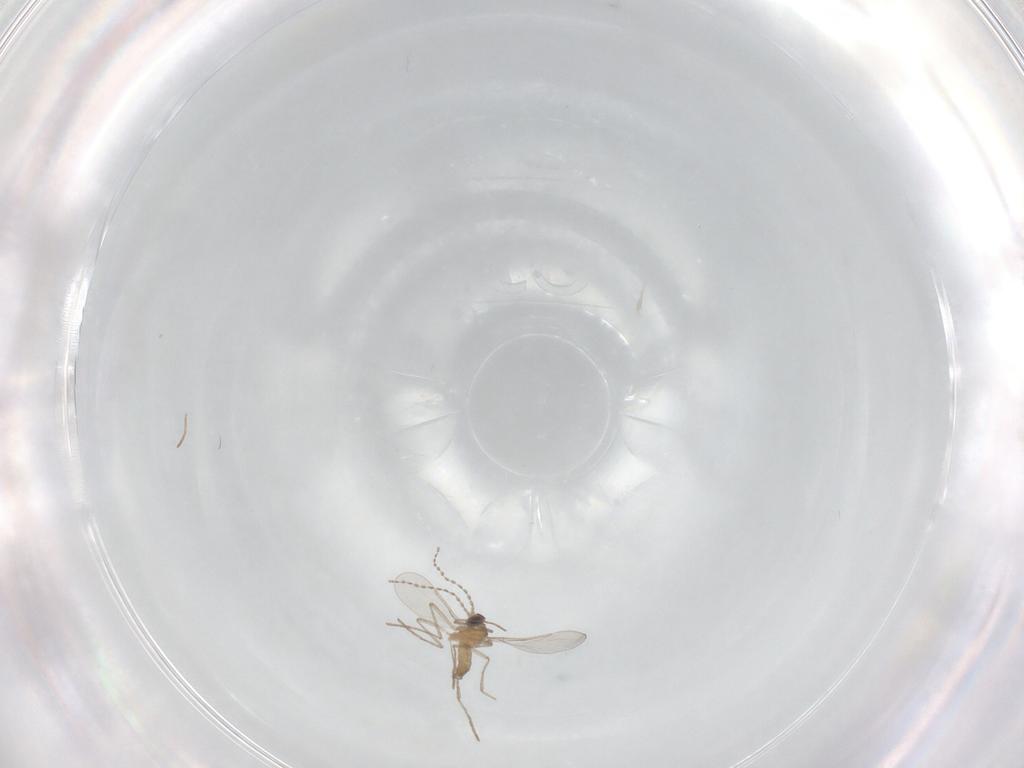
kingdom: Animalia
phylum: Arthropoda
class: Insecta
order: Diptera
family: Cecidomyiidae
